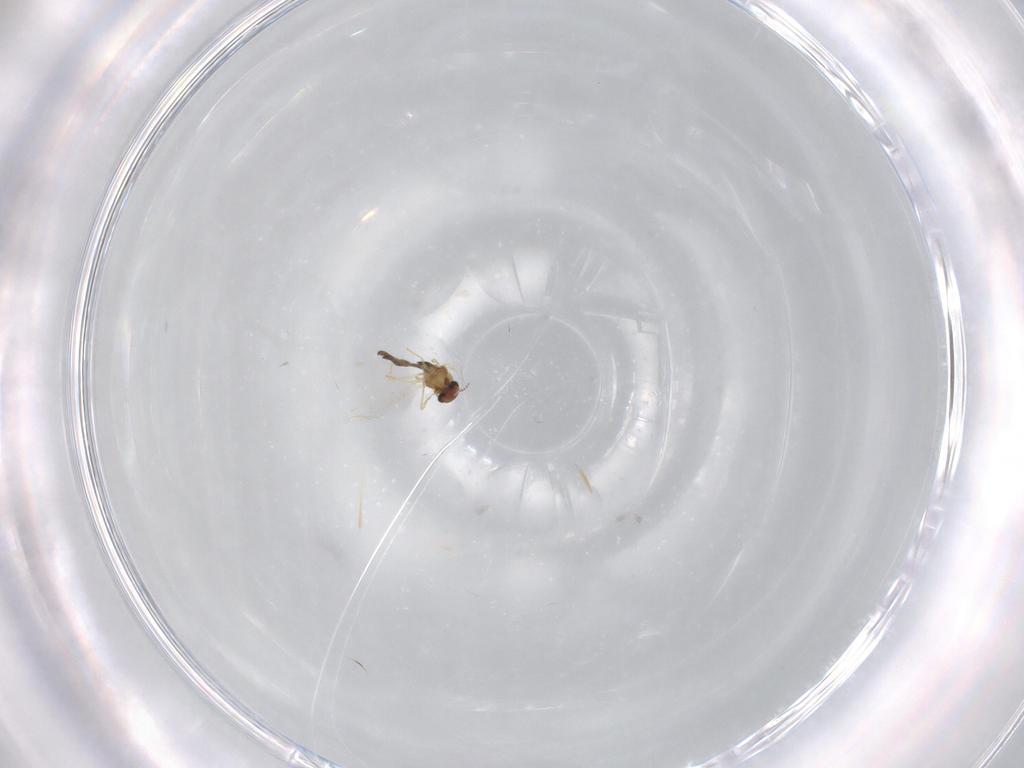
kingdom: Animalia
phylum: Arthropoda
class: Insecta
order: Diptera
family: Chironomidae
